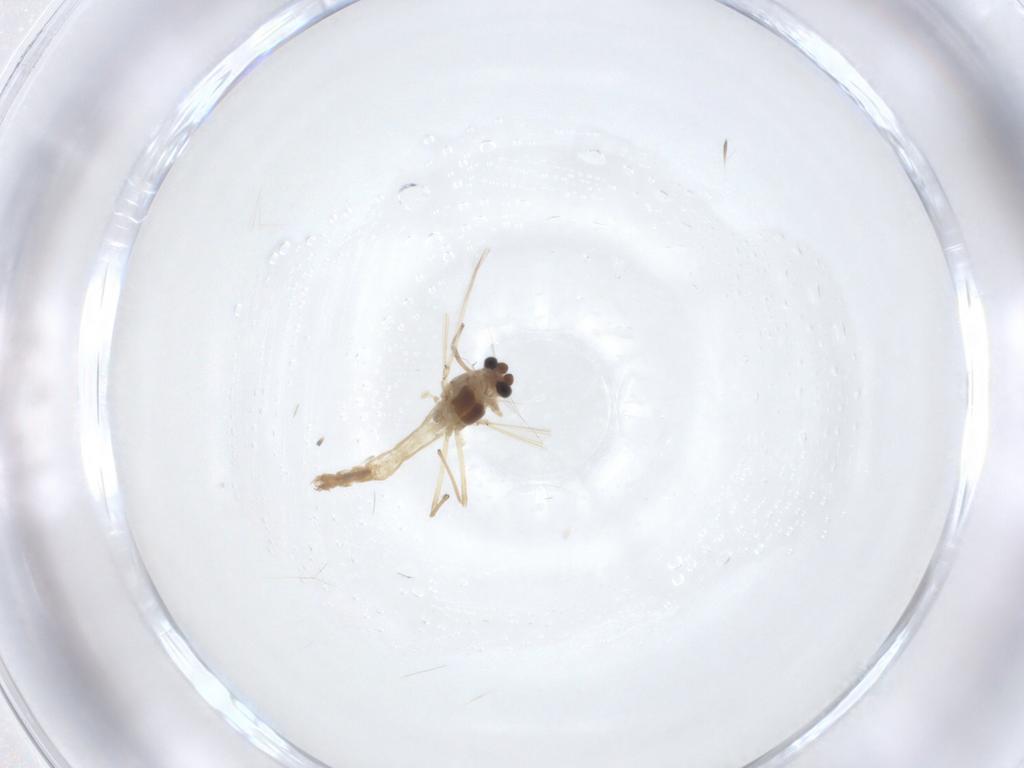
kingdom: Animalia
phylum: Arthropoda
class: Insecta
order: Diptera
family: Chironomidae
